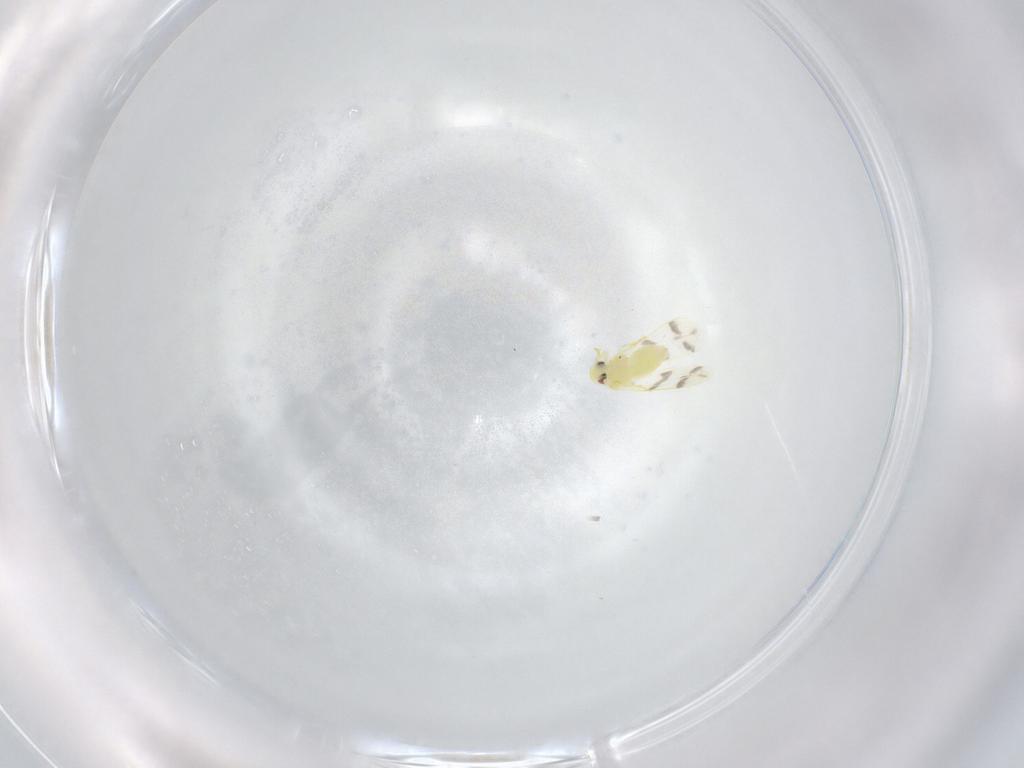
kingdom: Animalia
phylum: Arthropoda
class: Insecta
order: Hemiptera
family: Aleyrodidae
